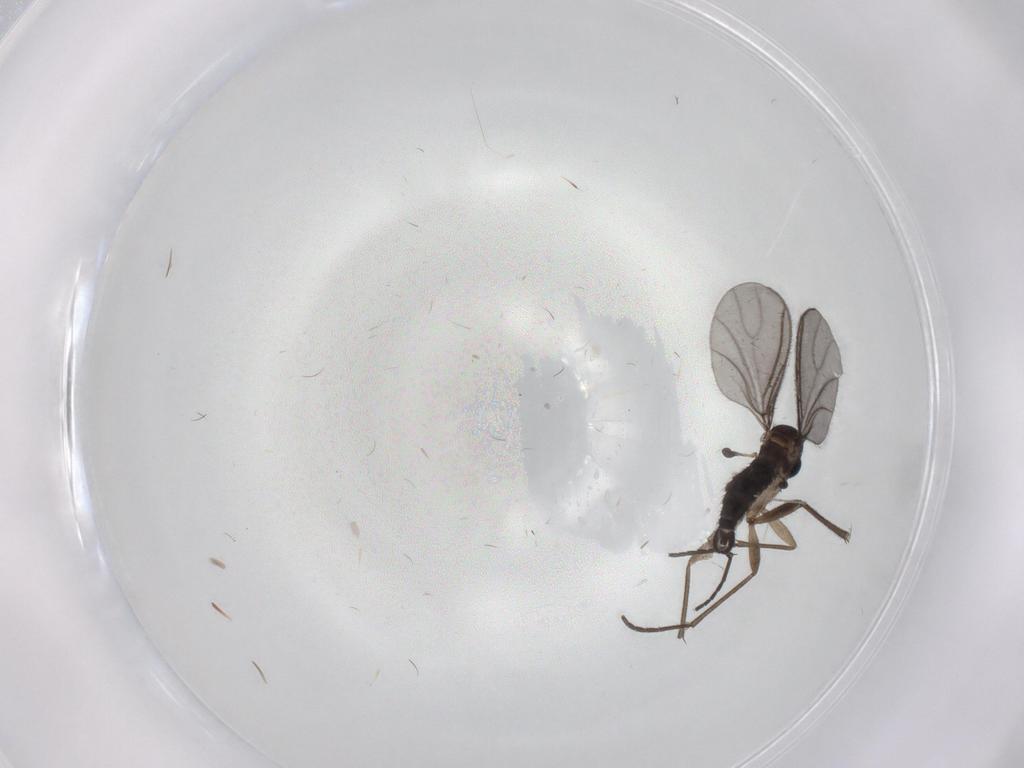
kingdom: Animalia
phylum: Arthropoda
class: Insecta
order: Diptera
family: Sciaridae
